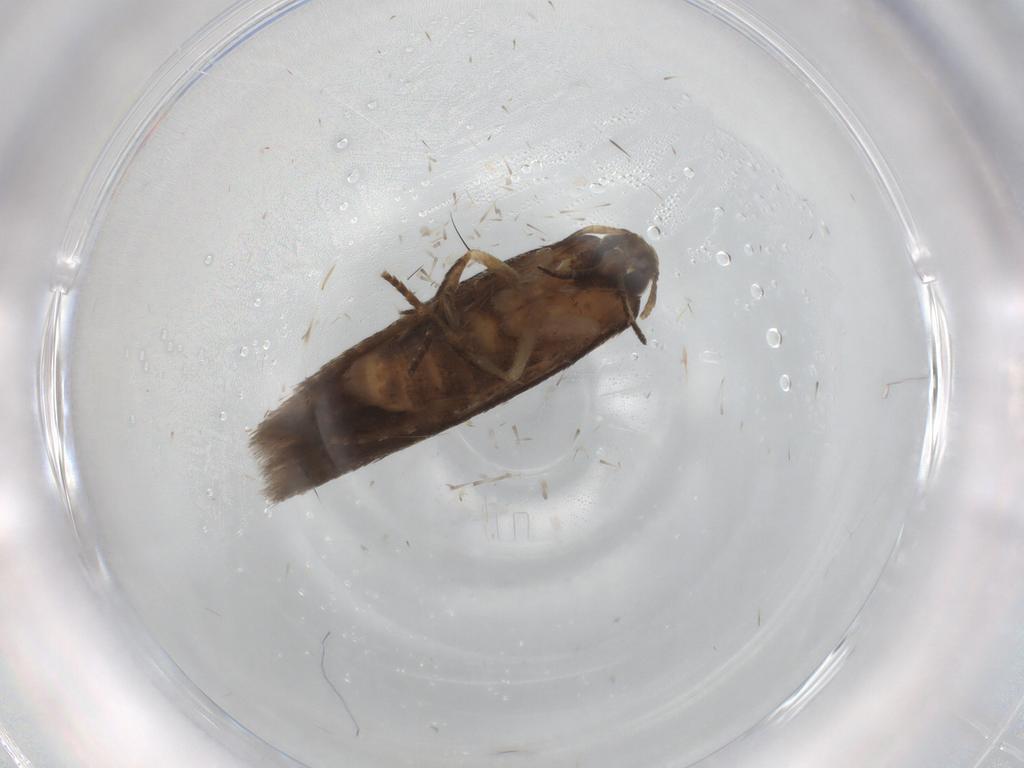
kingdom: Animalia
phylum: Arthropoda
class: Insecta
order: Lepidoptera
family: Cosmopterigidae
